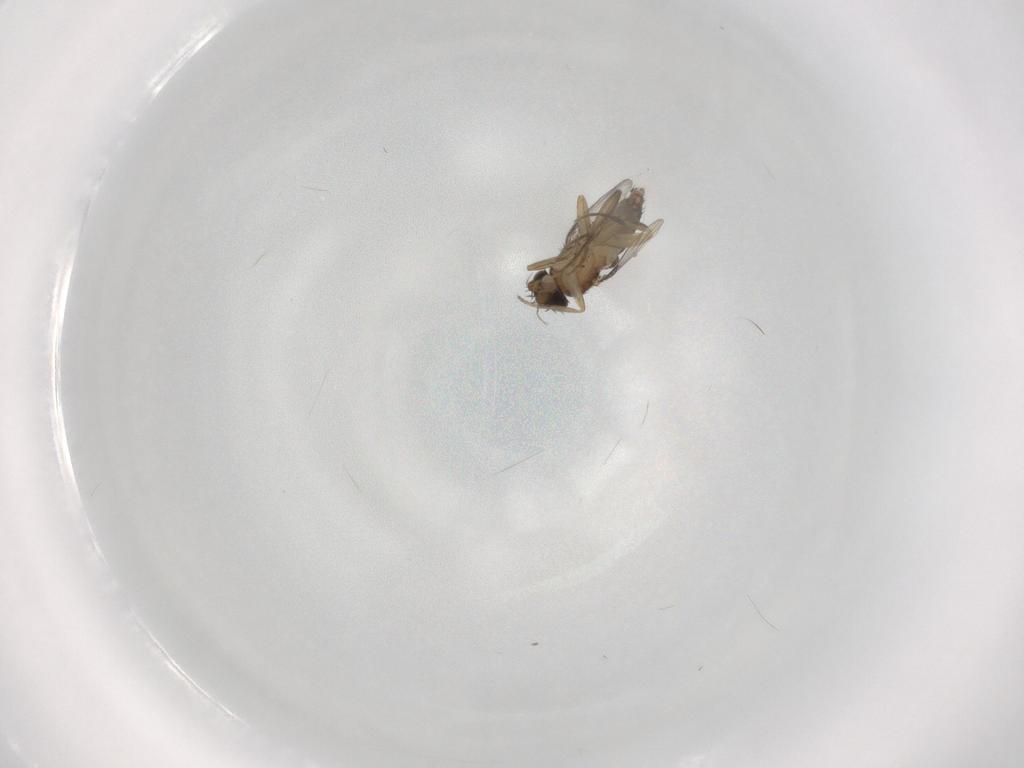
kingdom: Animalia
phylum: Arthropoda
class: Insecta
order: Diptera
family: Phoridae
